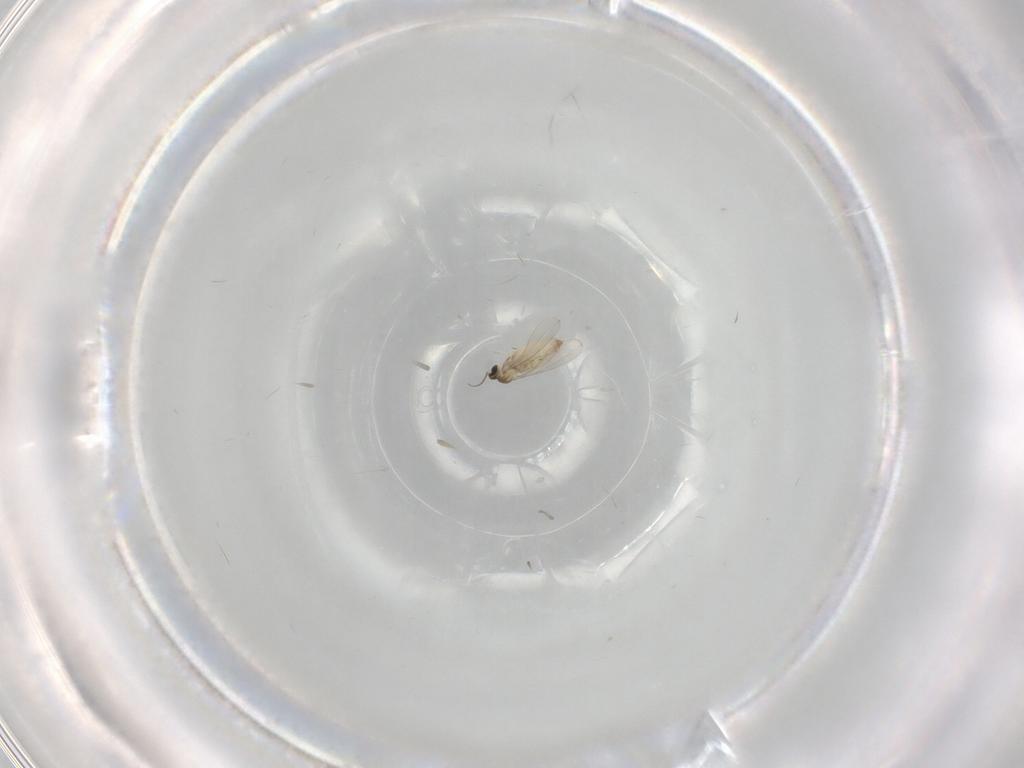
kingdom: Animalia
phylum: Arthropoda
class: Insecta
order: Diptera
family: Cecidomyiidae
